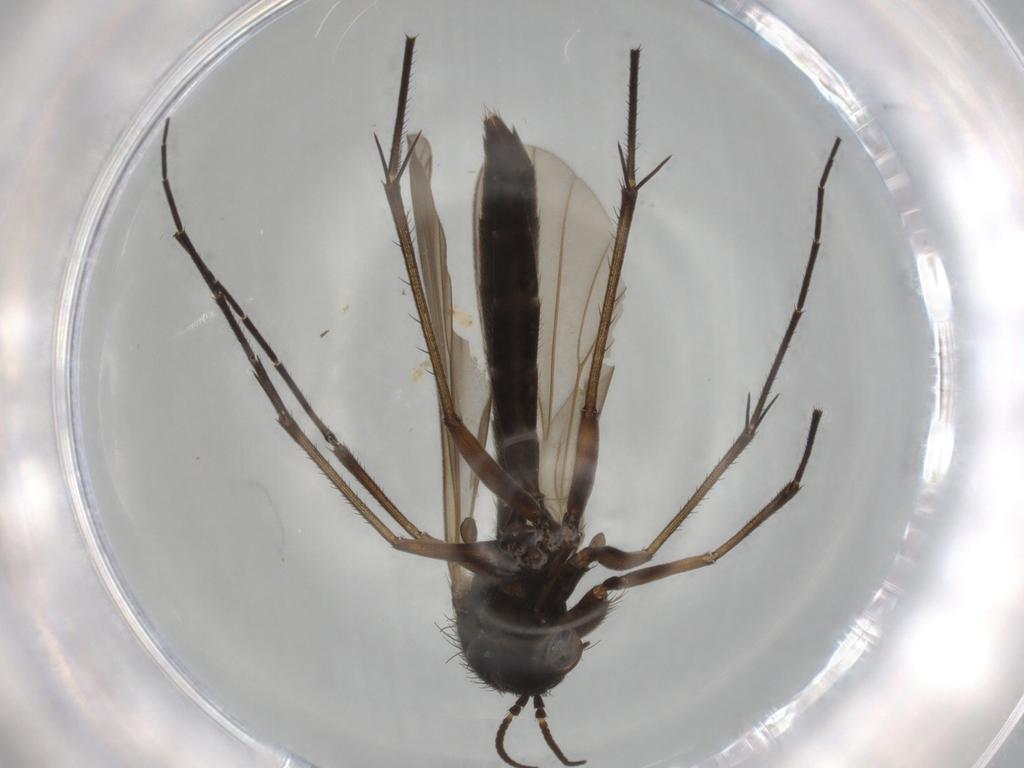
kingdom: Animalia
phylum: Arthropoda
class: Insecta
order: Diptera
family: Mycetophilidae
